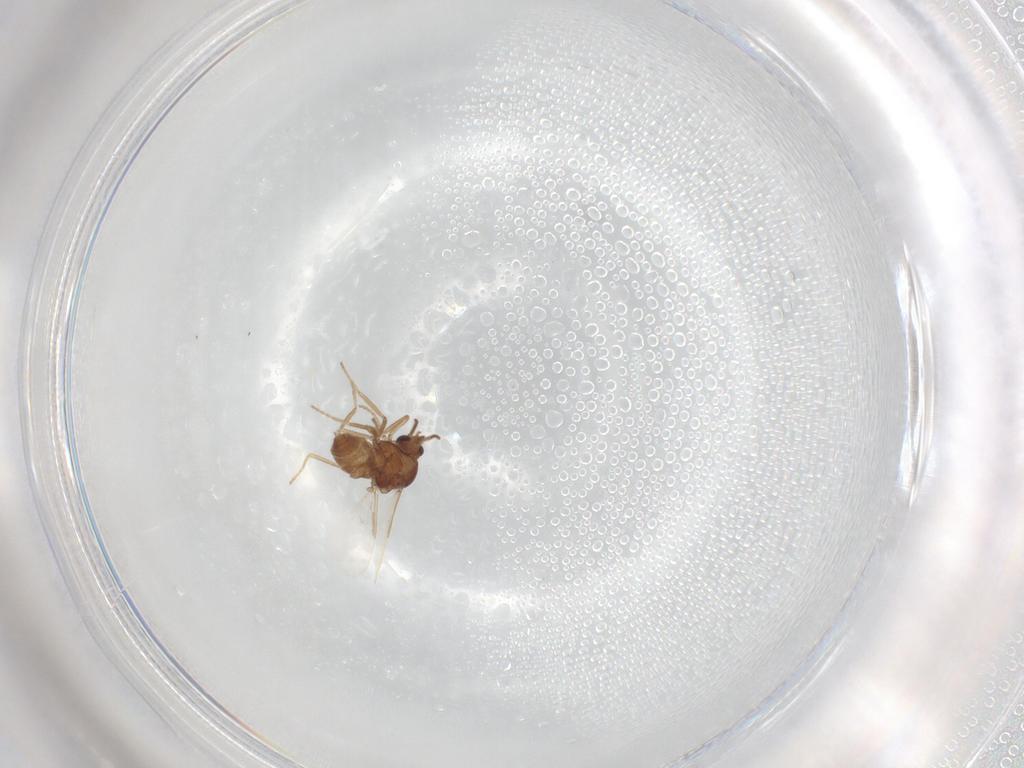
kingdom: Animalia
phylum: Arthropoda
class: Insecta
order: Diptera
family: Ceratopogonidae
